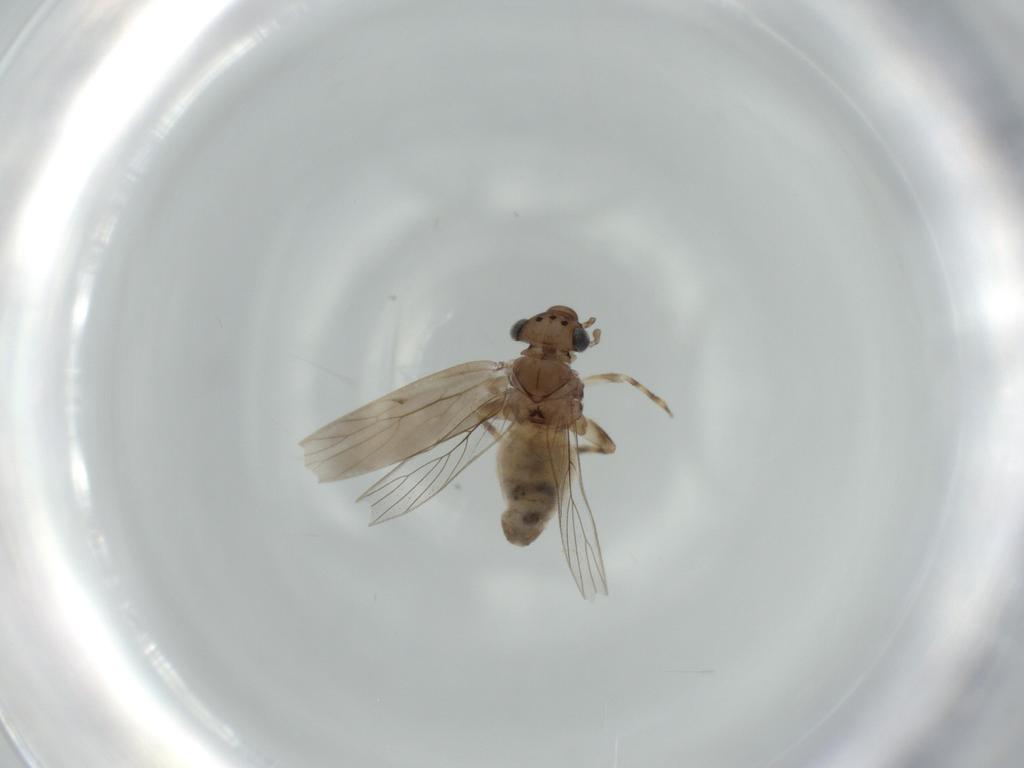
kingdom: Animalia
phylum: Arthropoda
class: Insecta
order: Psocodea
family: Lepidopsocidae
